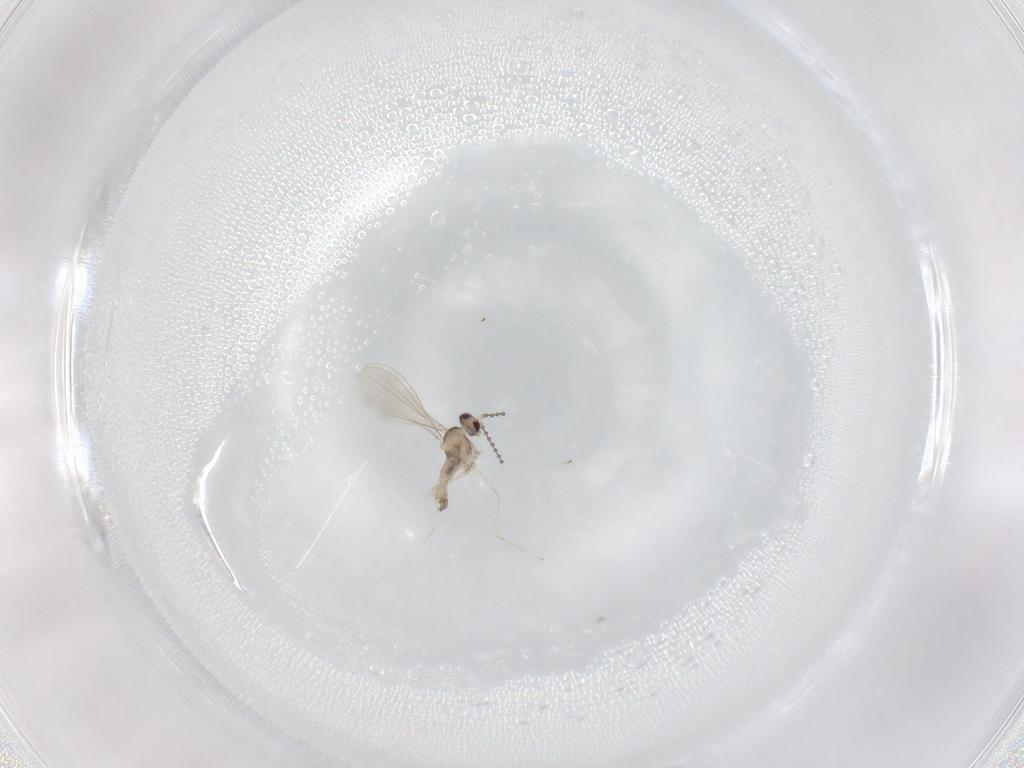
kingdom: Animalia
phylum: Arthropoda
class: Insecta
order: Diptera
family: Sphaeroceridae
